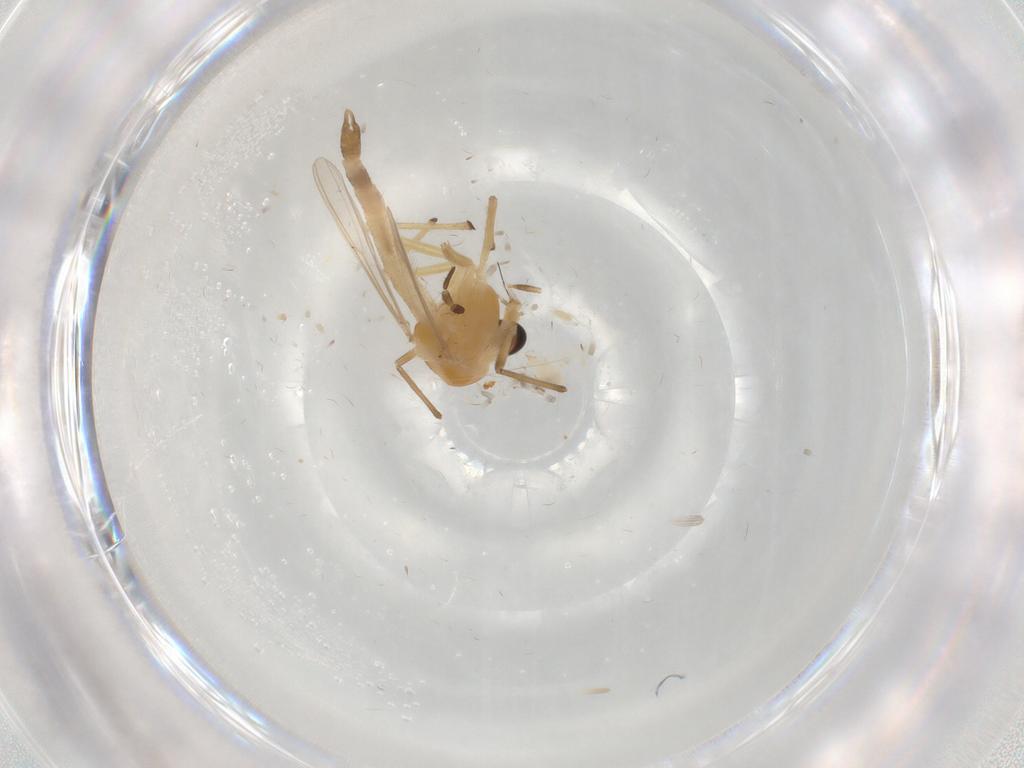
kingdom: Animalia
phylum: Arthropoda
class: Insecta
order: Diptera
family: Chironomidae
